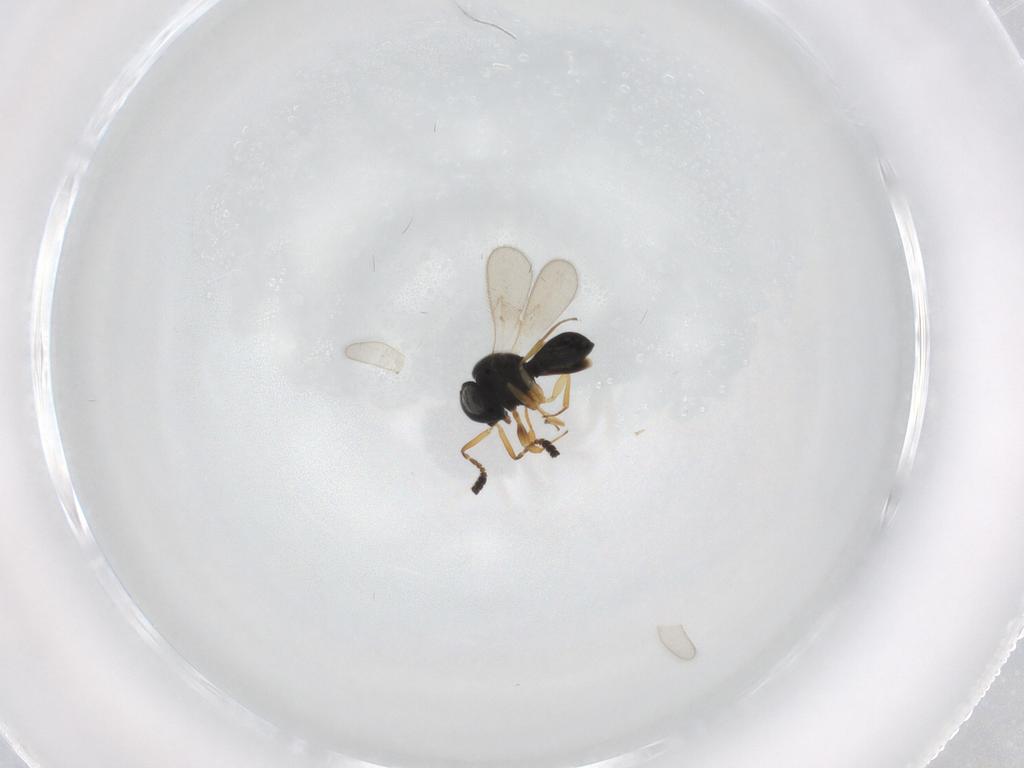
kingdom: Animalia
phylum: Arthropoda
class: Insecta
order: Hymenoptera
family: Scelionidae
